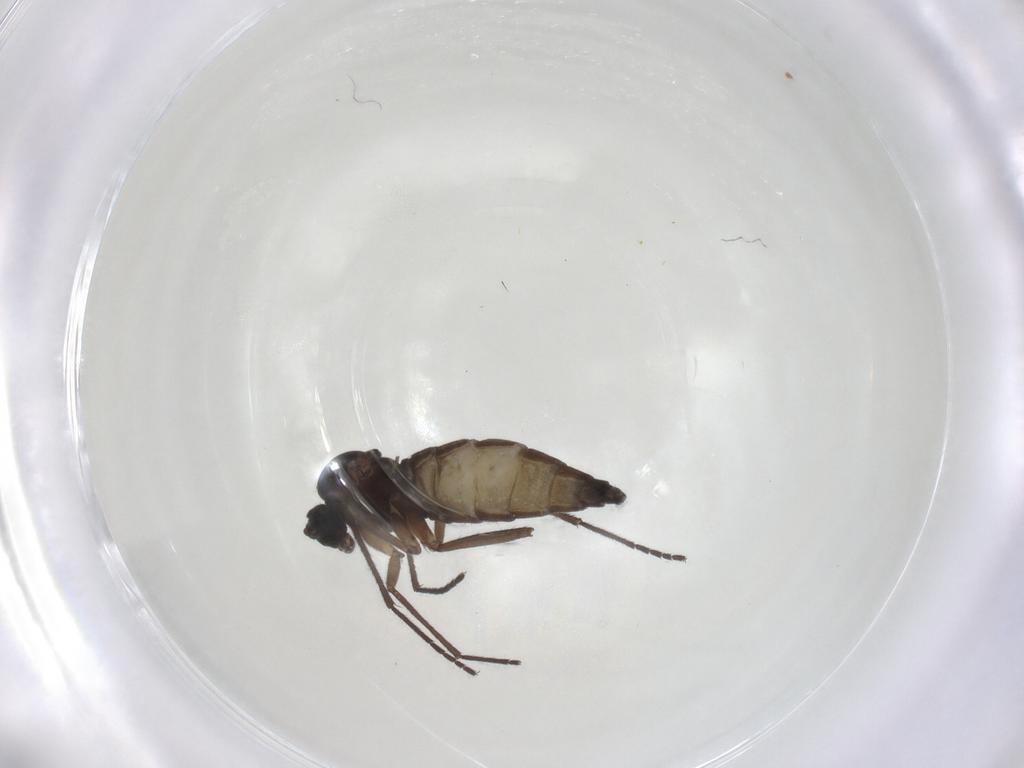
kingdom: Animalia
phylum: Arthropoda
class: Insecta
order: Diptera
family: Sciaridae
